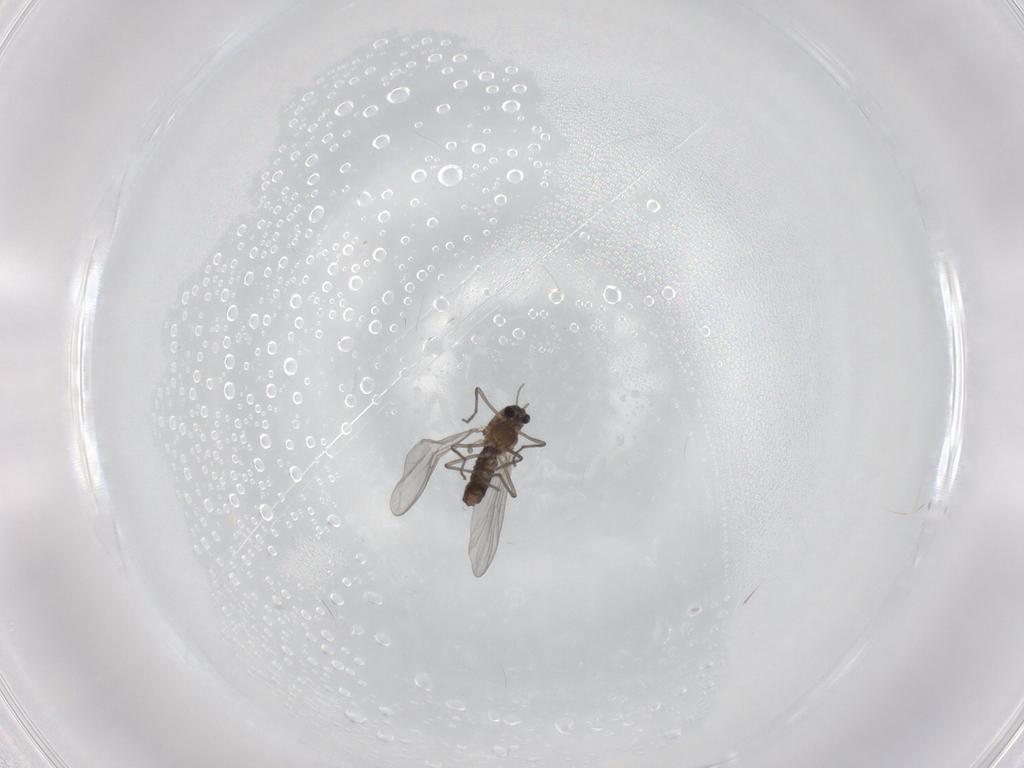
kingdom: Animalia
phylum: Arthropoda
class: Insecta
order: Diptera
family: Chironomidae
